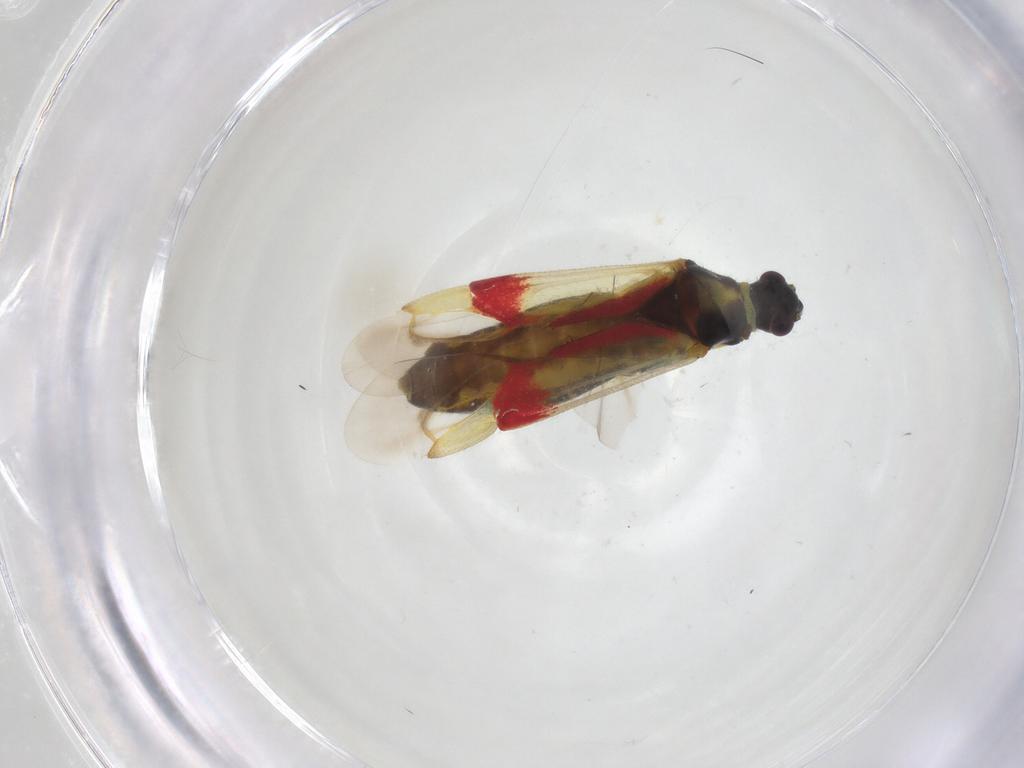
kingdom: Animalia
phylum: Arthropoda
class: Insecta
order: Hemiptera
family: Miridae
